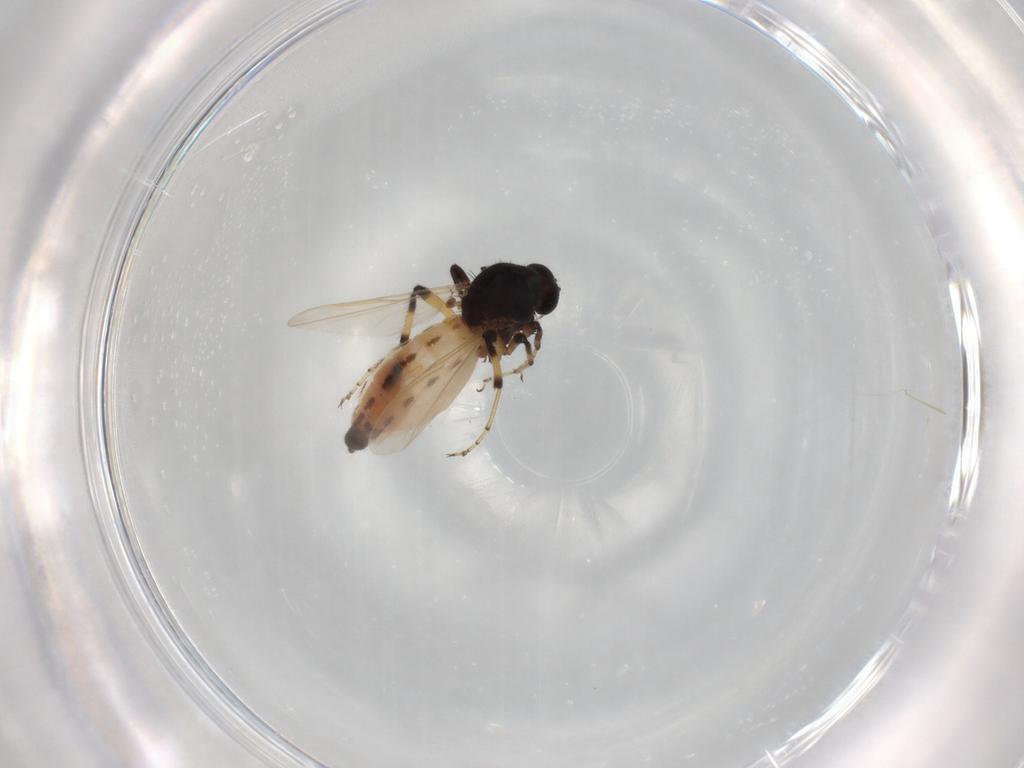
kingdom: Animalia
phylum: Arthropoda
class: Insecta
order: Diptera
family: Ceratopogonidae
